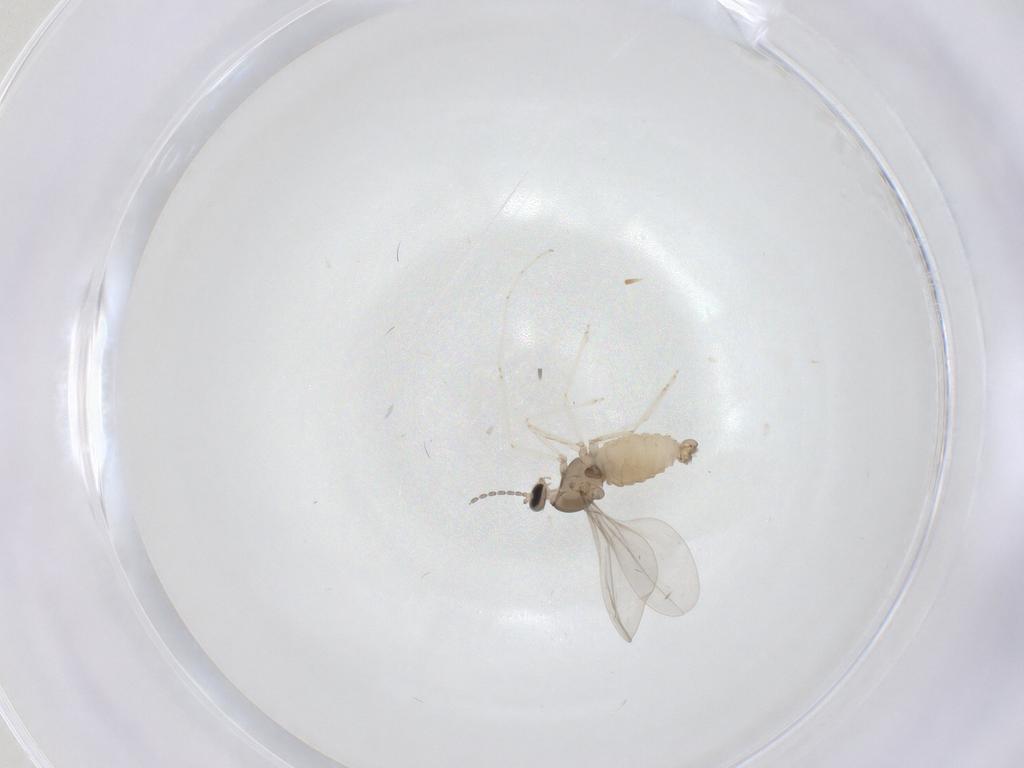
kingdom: Animalia
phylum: Arthropoda
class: Insecta
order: Diptera
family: Cecidomyiidae
